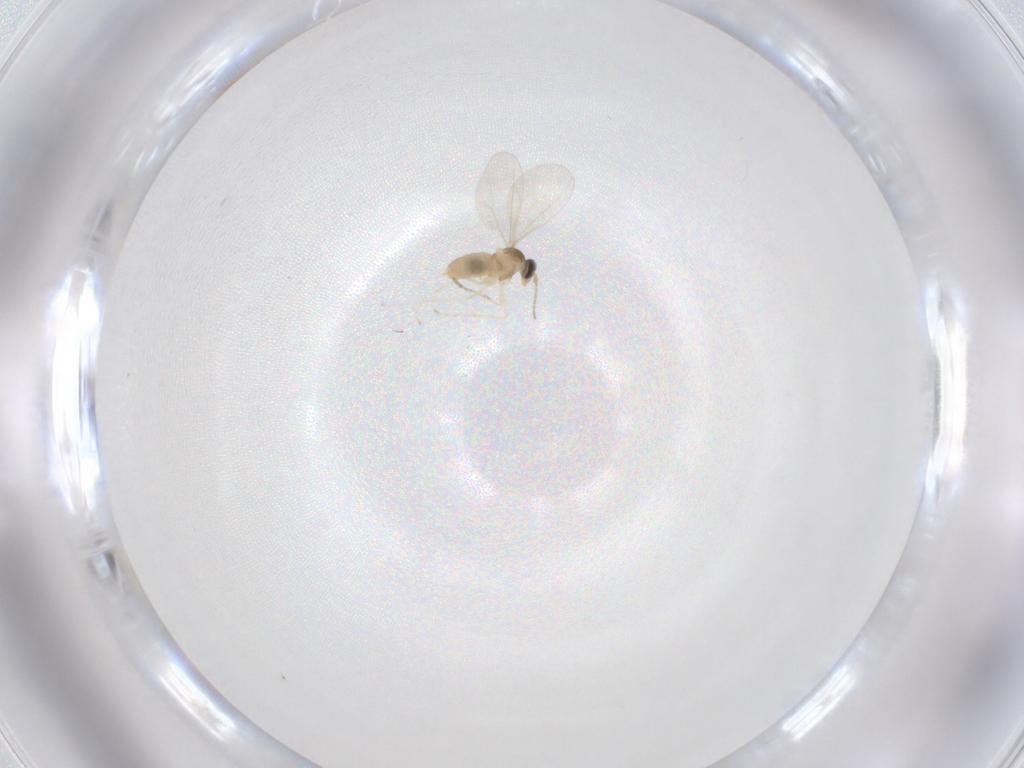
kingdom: Animalia
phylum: Arthropoda
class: Insecta
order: Diptera
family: Cecidomyiidae
